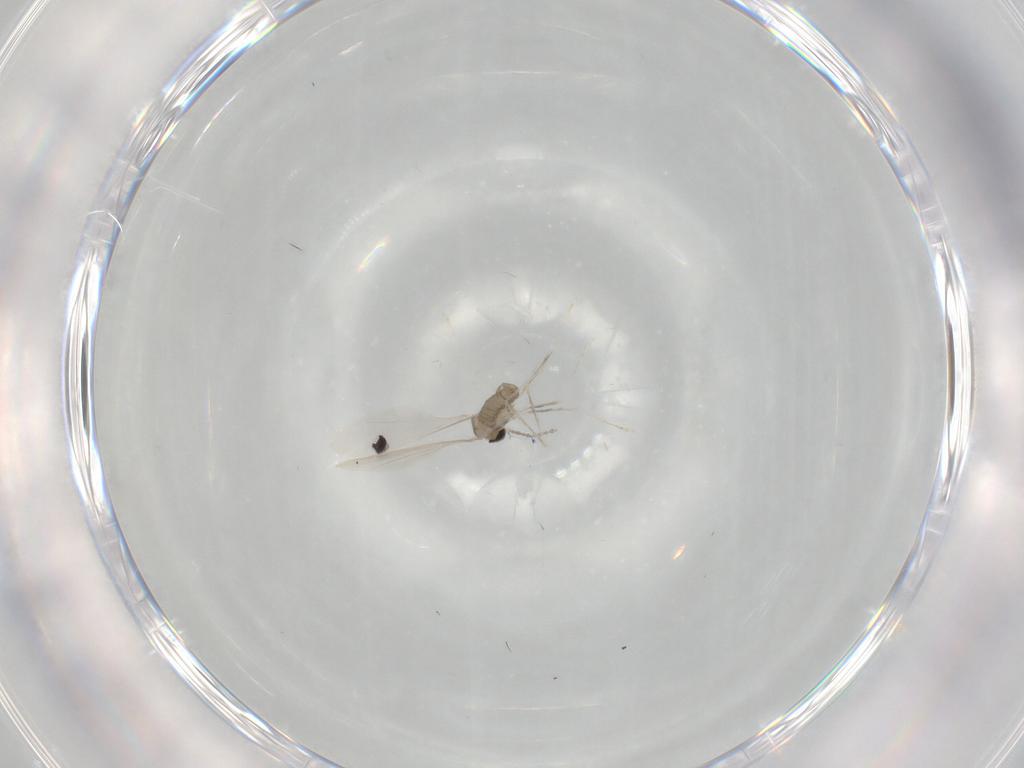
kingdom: Animalia
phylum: Arthropoda
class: Insecta
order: Diptera
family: Cecidomyiidae
